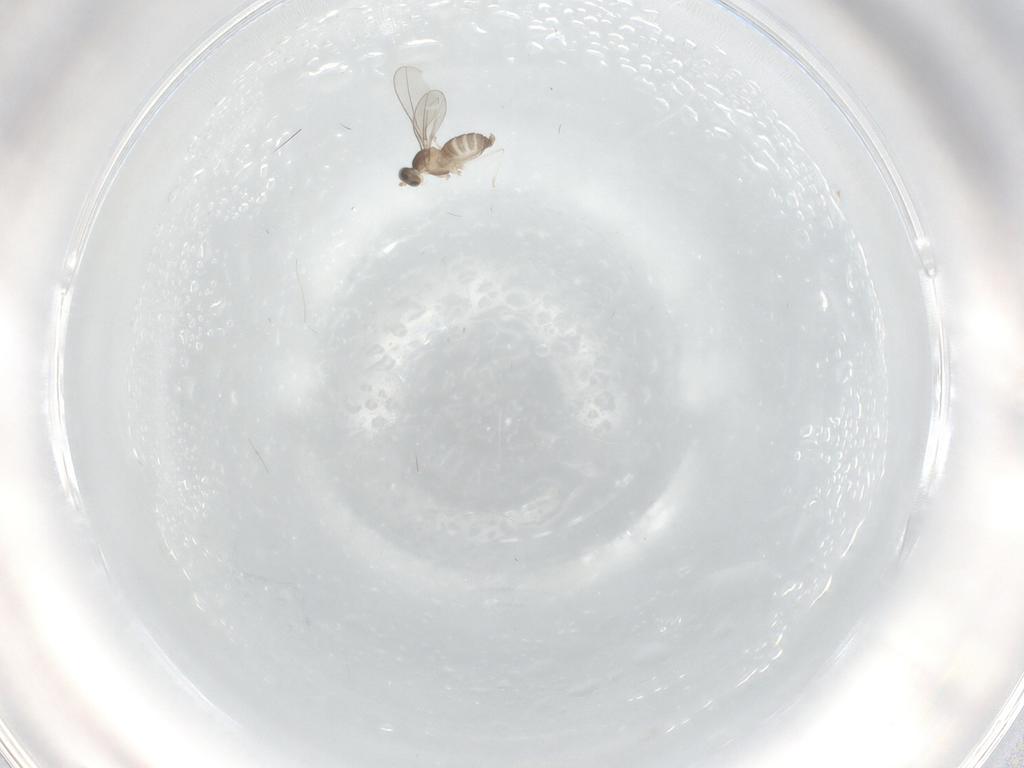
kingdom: Animalia
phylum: Arthropoda
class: Insecta
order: Diptera
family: Cecidomyiidae
